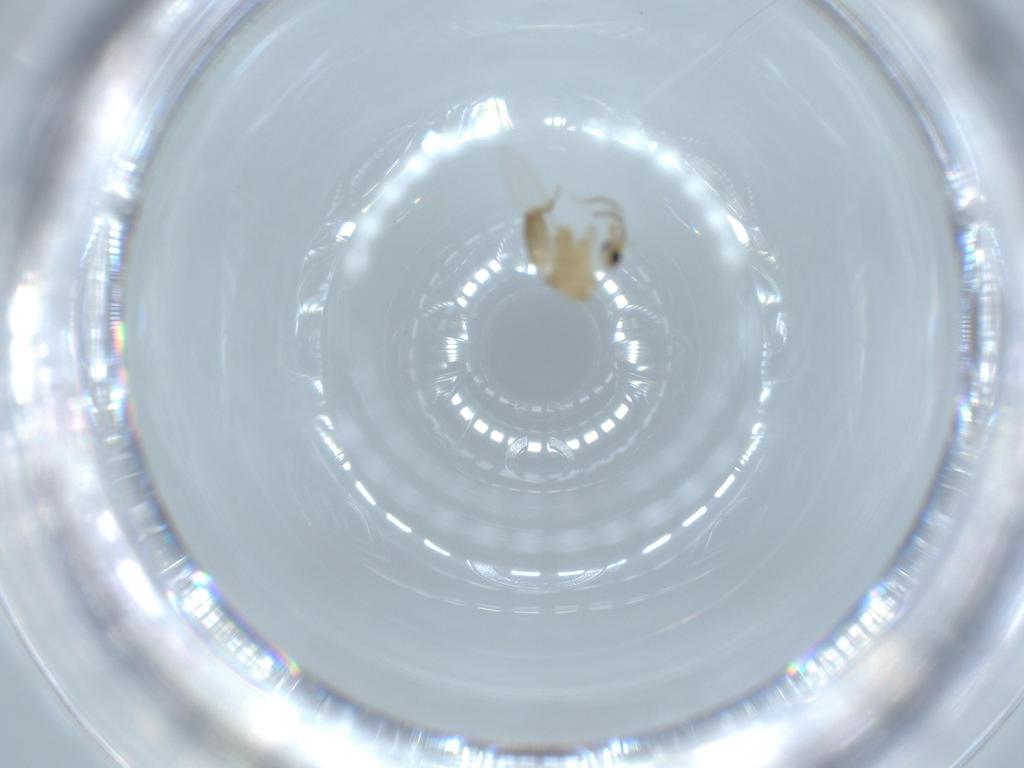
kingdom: Animalia
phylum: Arthropoda
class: Insecta
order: Diptera
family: Psychodidae
